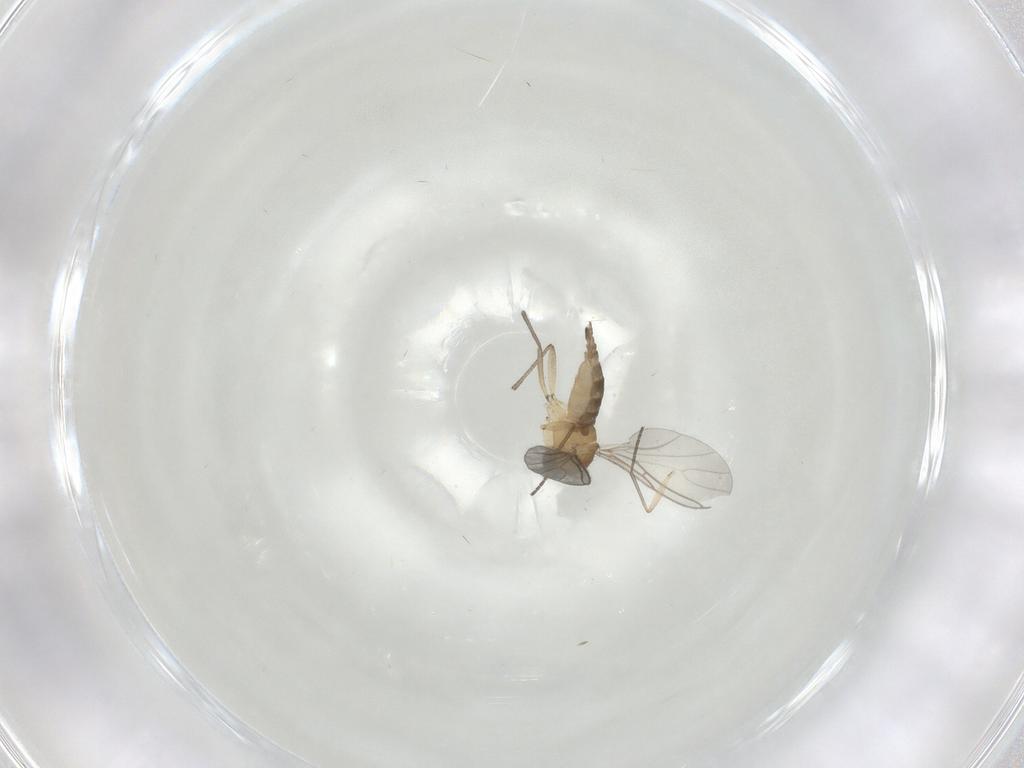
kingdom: Animalia
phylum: Arthropoda
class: Insecta
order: Diptera
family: Sciaridae
